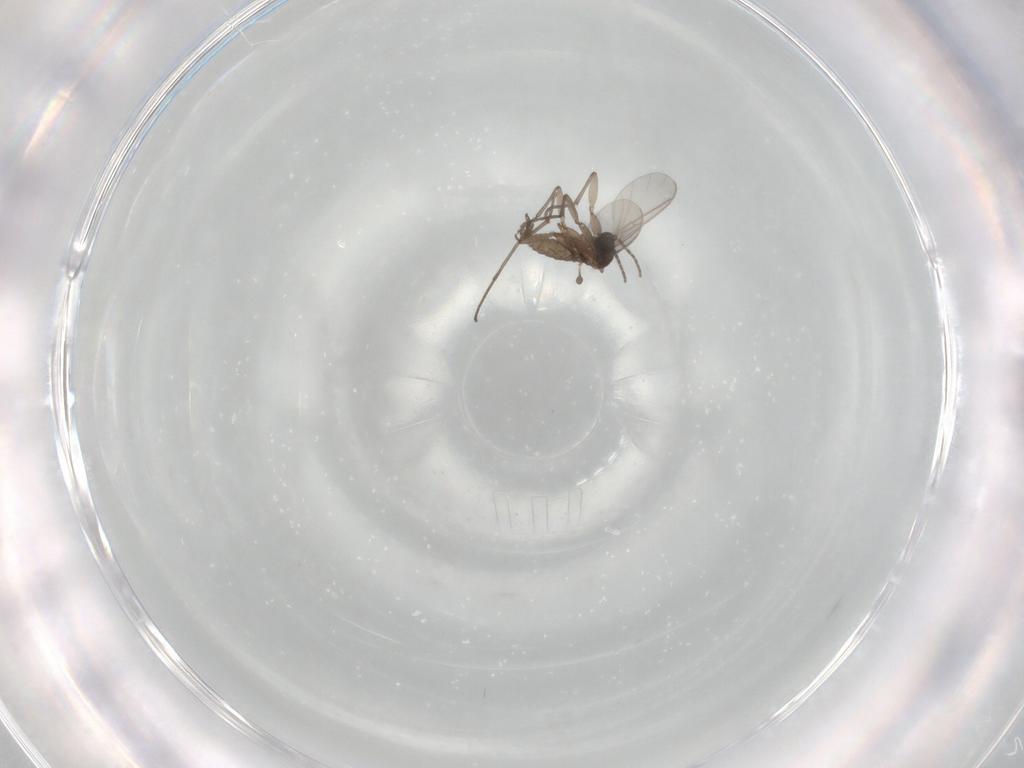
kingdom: Animalia
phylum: Arthropoda
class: Insecta
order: Diptera
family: Sciaridae
